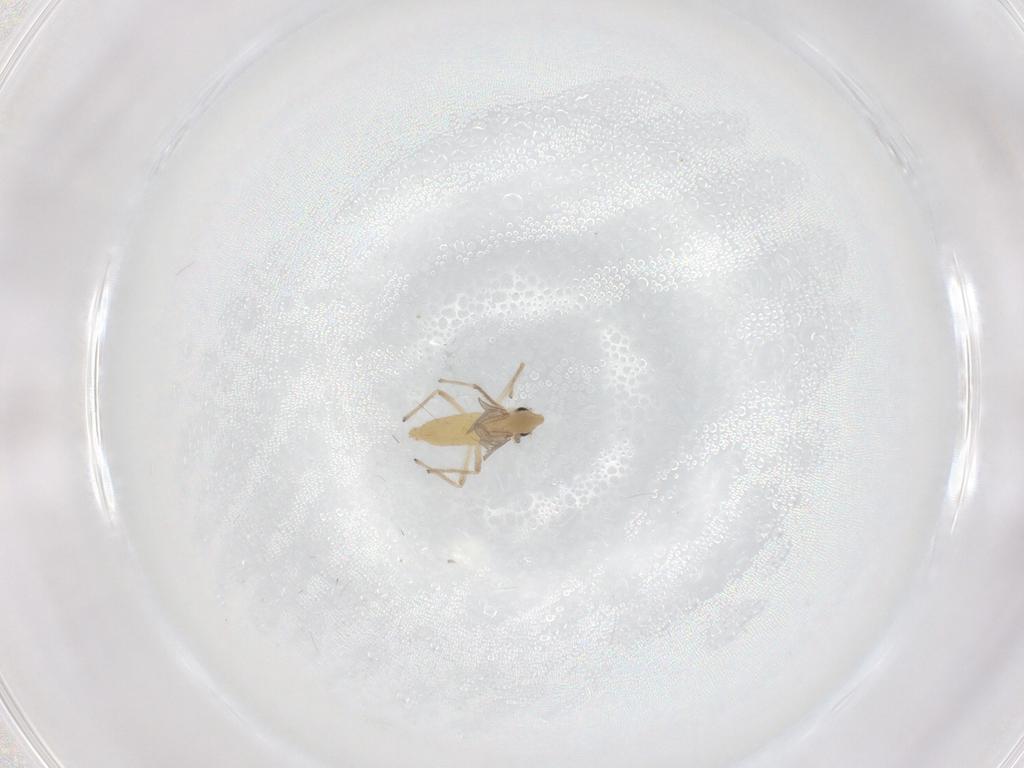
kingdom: Animalia
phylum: Arthropoda
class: Insecta
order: Diptera
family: Chironomidae
